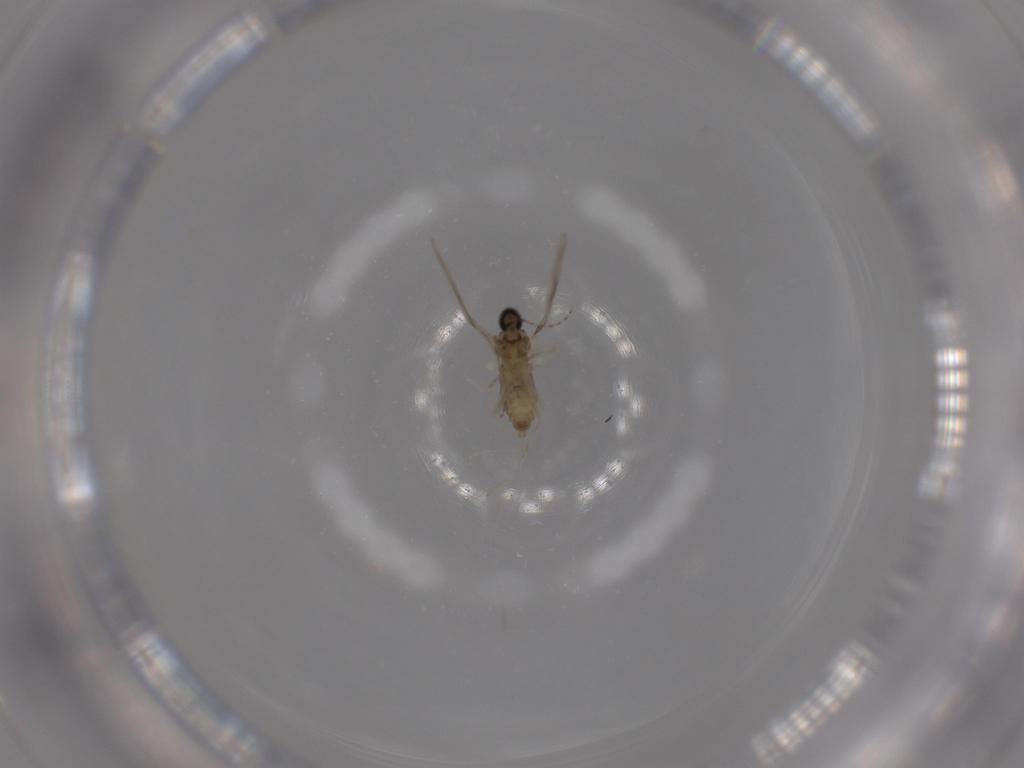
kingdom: Animalia
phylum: Arthropoda
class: Insecta
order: Diptera
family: Cecidomyiidae
